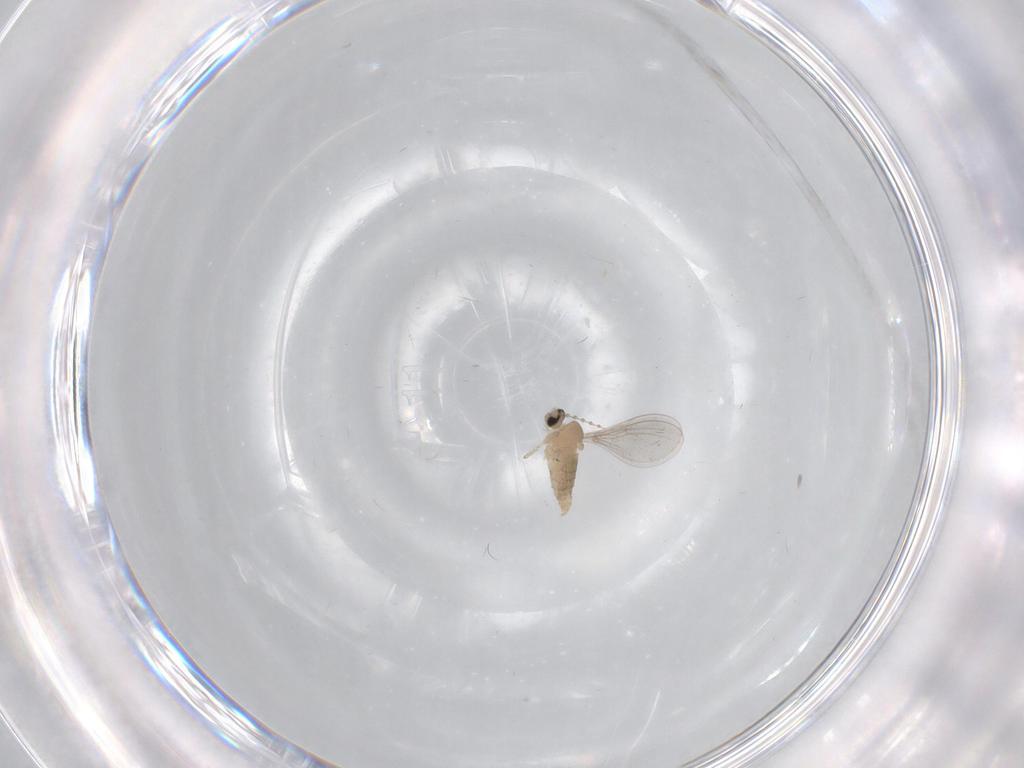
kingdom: Animalia
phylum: Arthropoda
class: Insecta
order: Diptera
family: Cecidomyiidae
